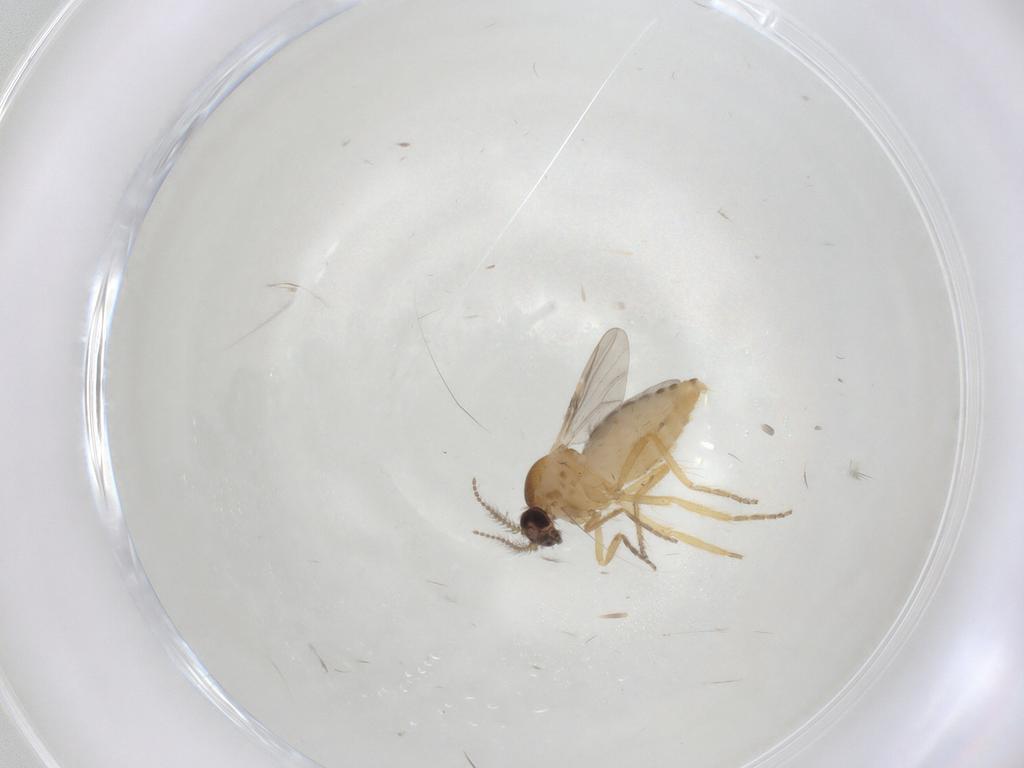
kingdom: Animalia
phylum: Arthropoda
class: Insecta
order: Diptera
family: Ceratopogonidae
